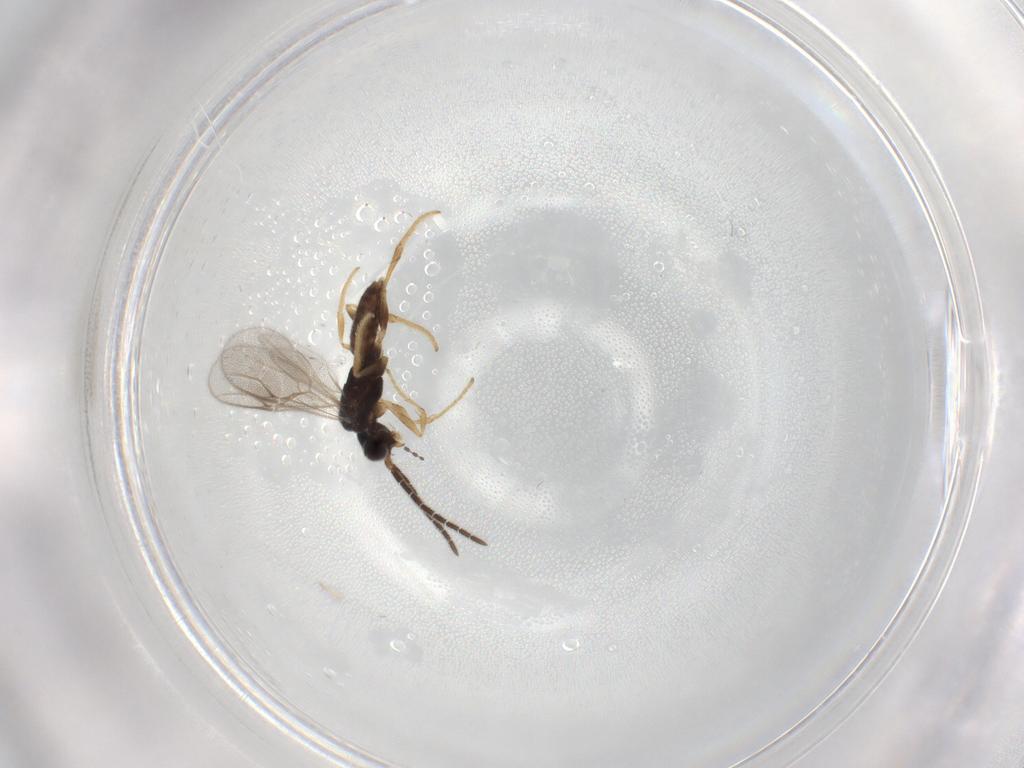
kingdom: Animalia
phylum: Arthropoda
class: Insecta
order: Hymenoptera
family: Dryinidae
